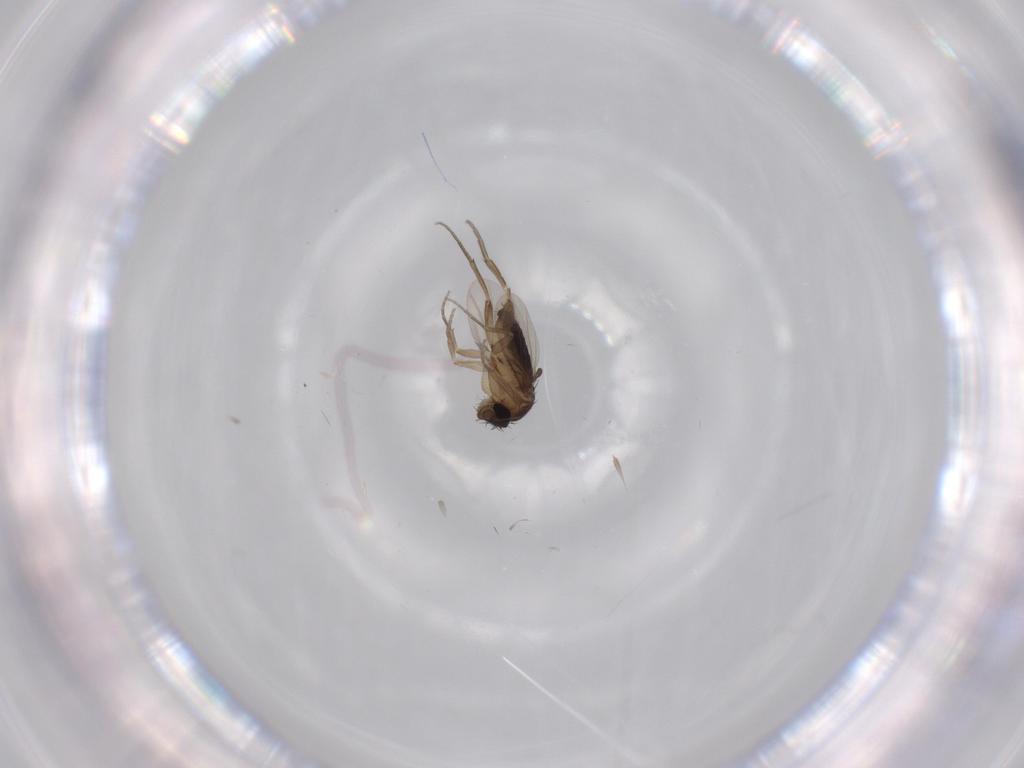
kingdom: Animalia
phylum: Arthropoda
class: Insecta
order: Diptera
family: Phoridae
